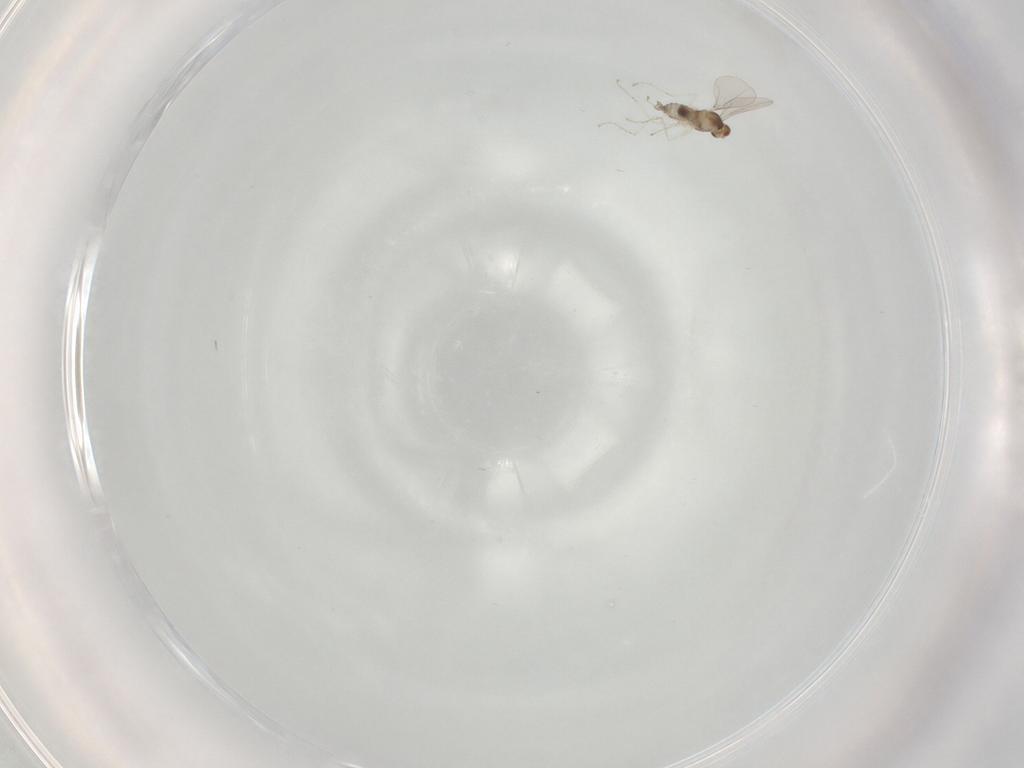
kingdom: Animalia
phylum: Arthropoda
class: Insecta
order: Diptera
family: Cecidomyiidae
